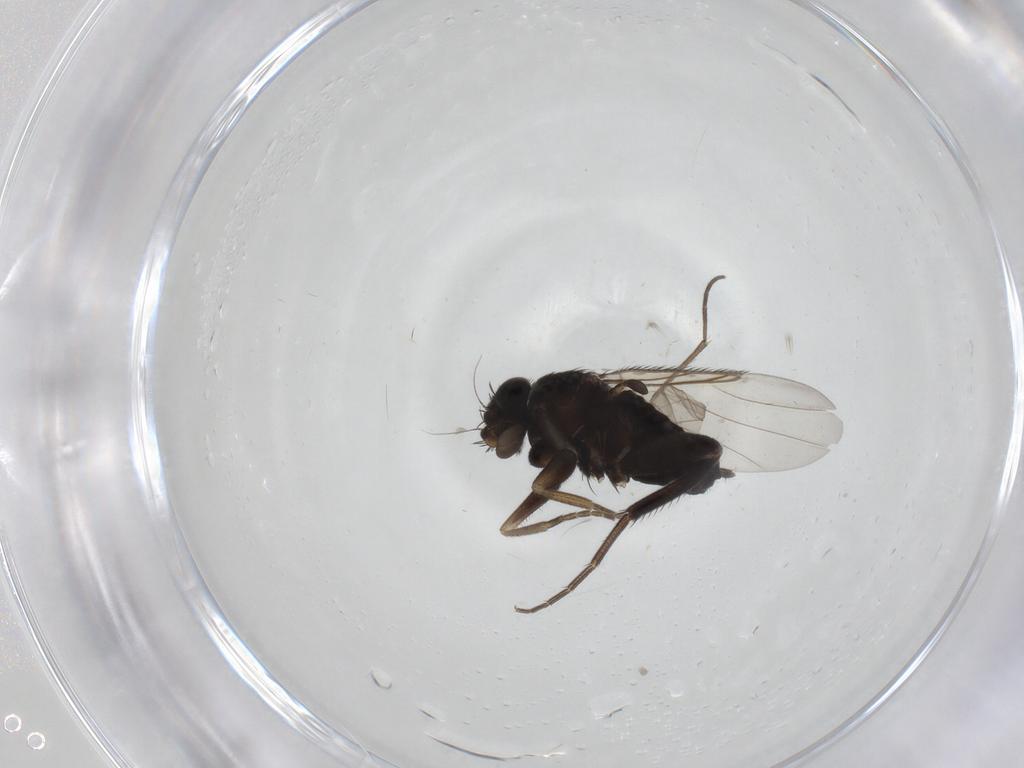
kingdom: Animalia
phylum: Arthropoda
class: Insecta
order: Diptera
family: Phoridae
